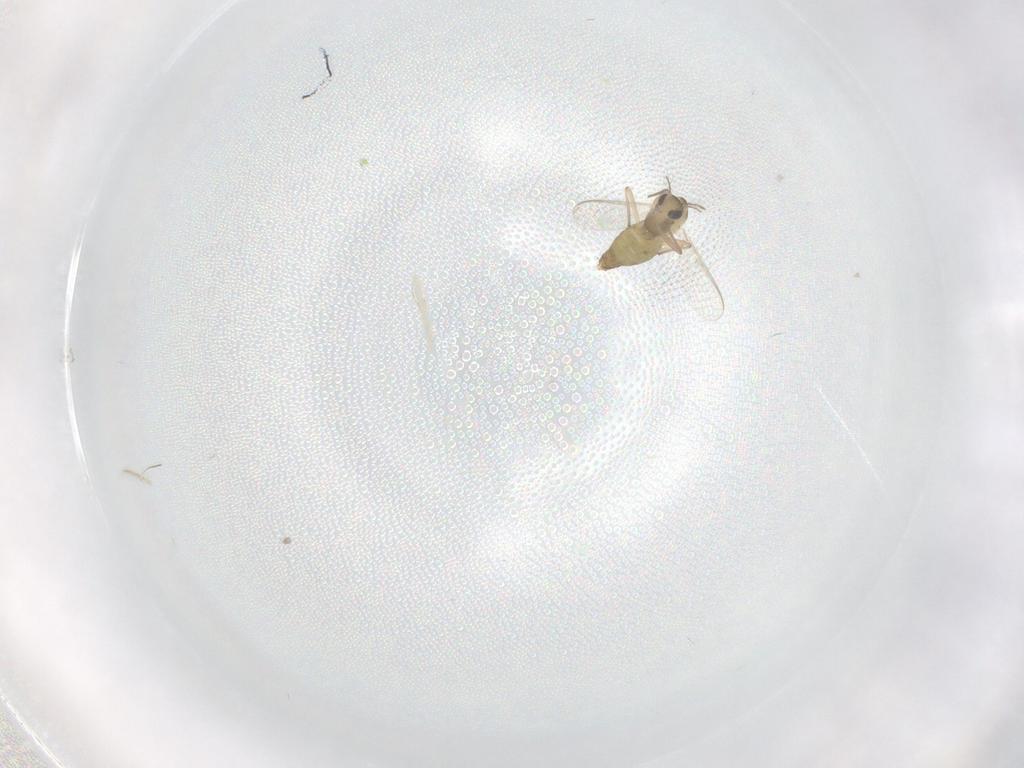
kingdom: Animalia
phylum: Arthropoda
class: Insecta
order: Diptera
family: Chironomidae
